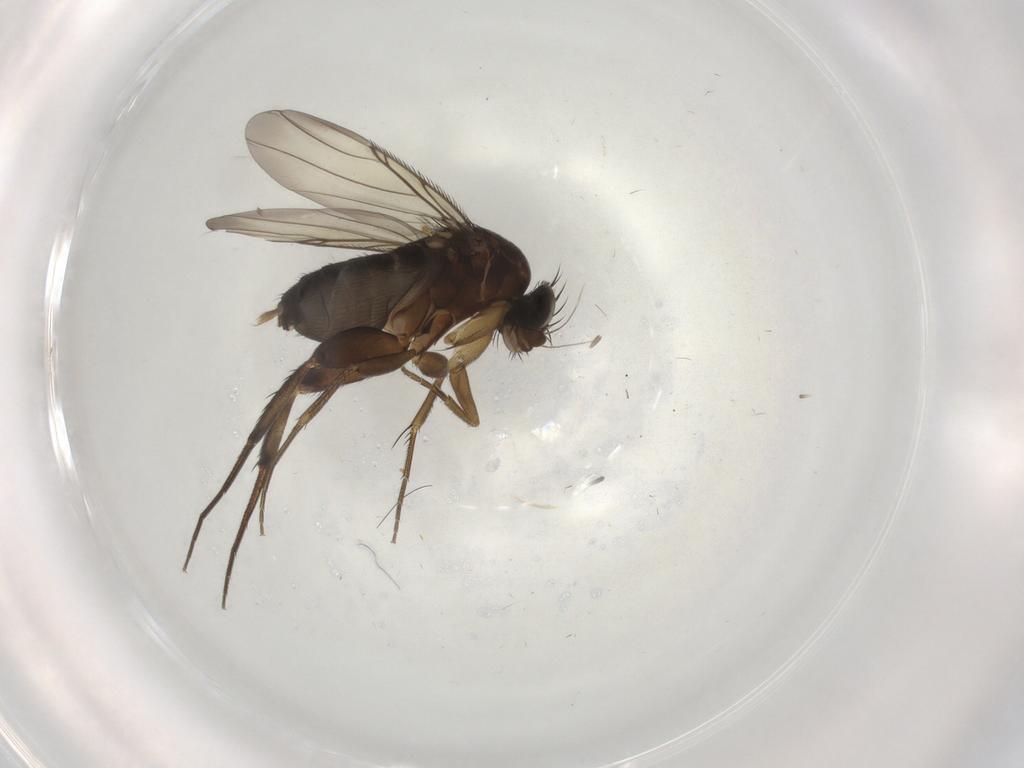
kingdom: Animalia
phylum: Arthropoda
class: Insecta
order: Diptera
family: Phoridae
